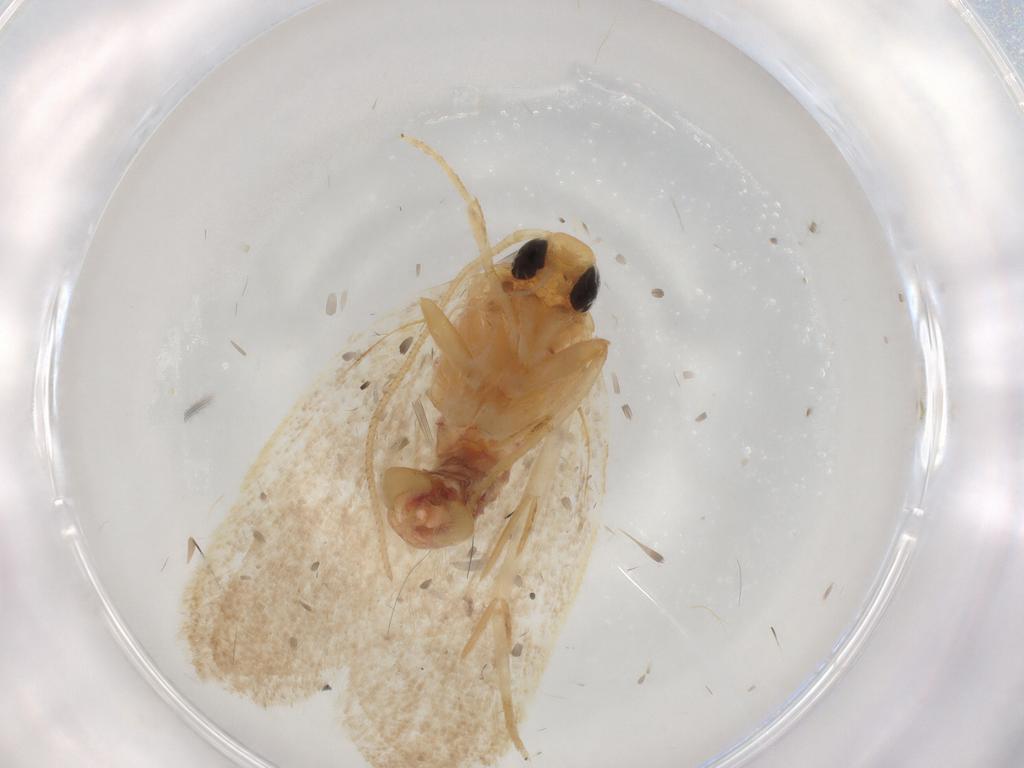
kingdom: Animalia
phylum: Arthropoda
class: Insecta
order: Lepidoptera
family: Autostichidae
